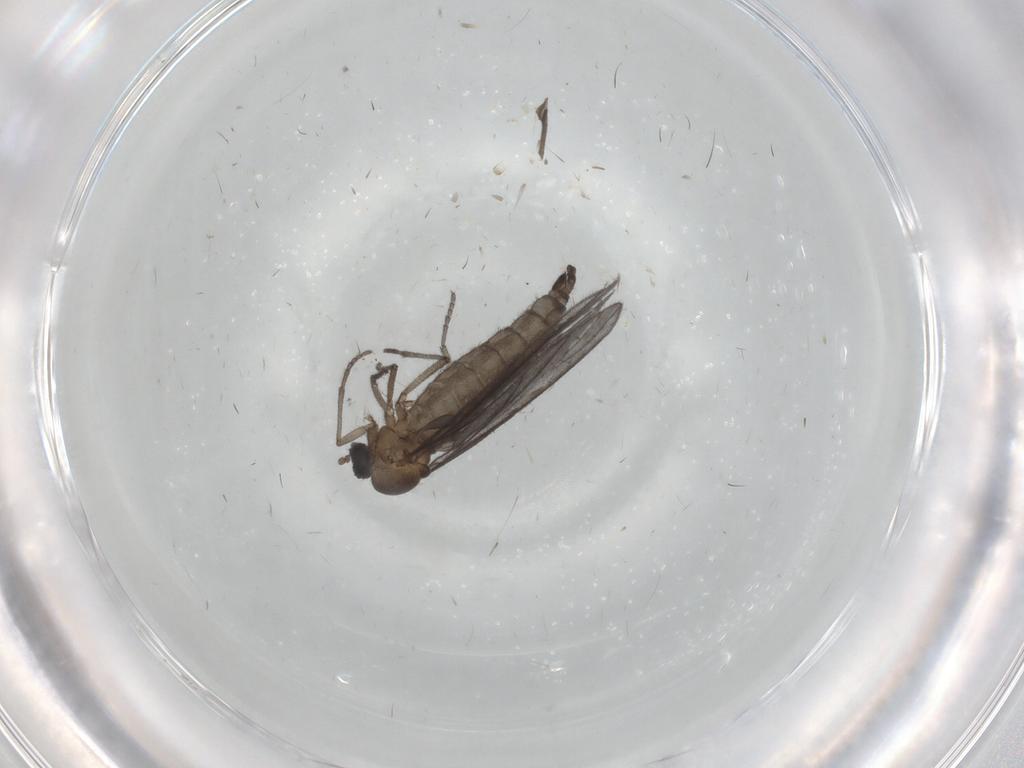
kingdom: Animalia
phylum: Arthropoda
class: Insecta
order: Diptera
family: Sciaridae
